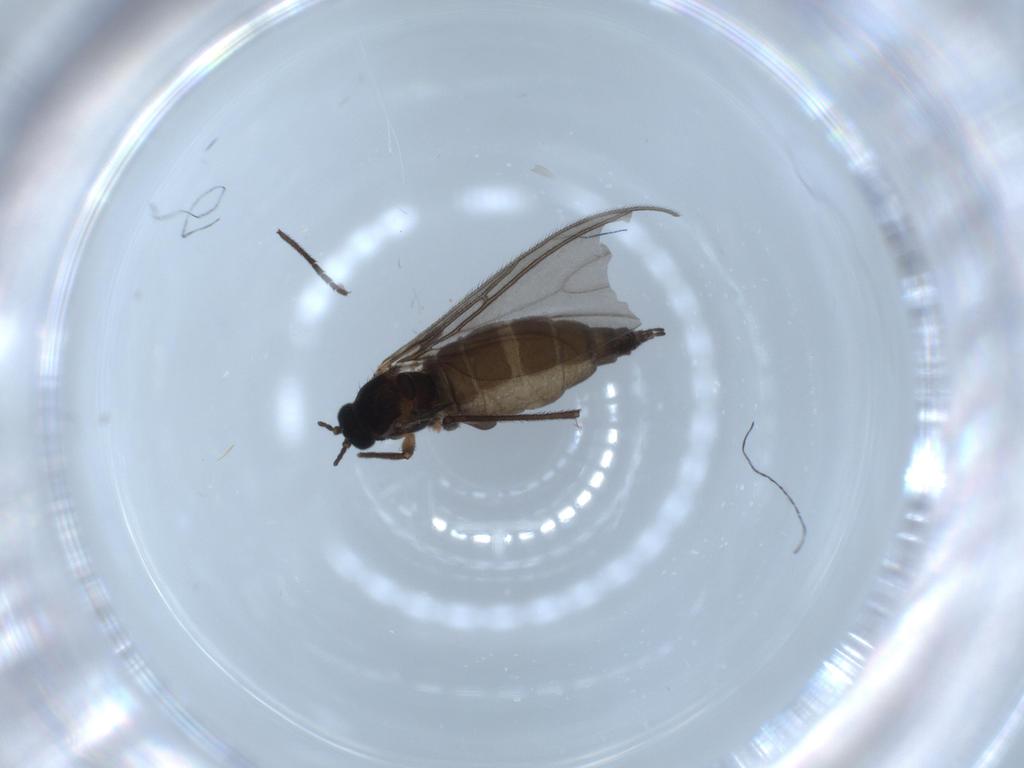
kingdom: Animalia
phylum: Arthropoda
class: Insecta
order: Diptera
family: Sciaridae
